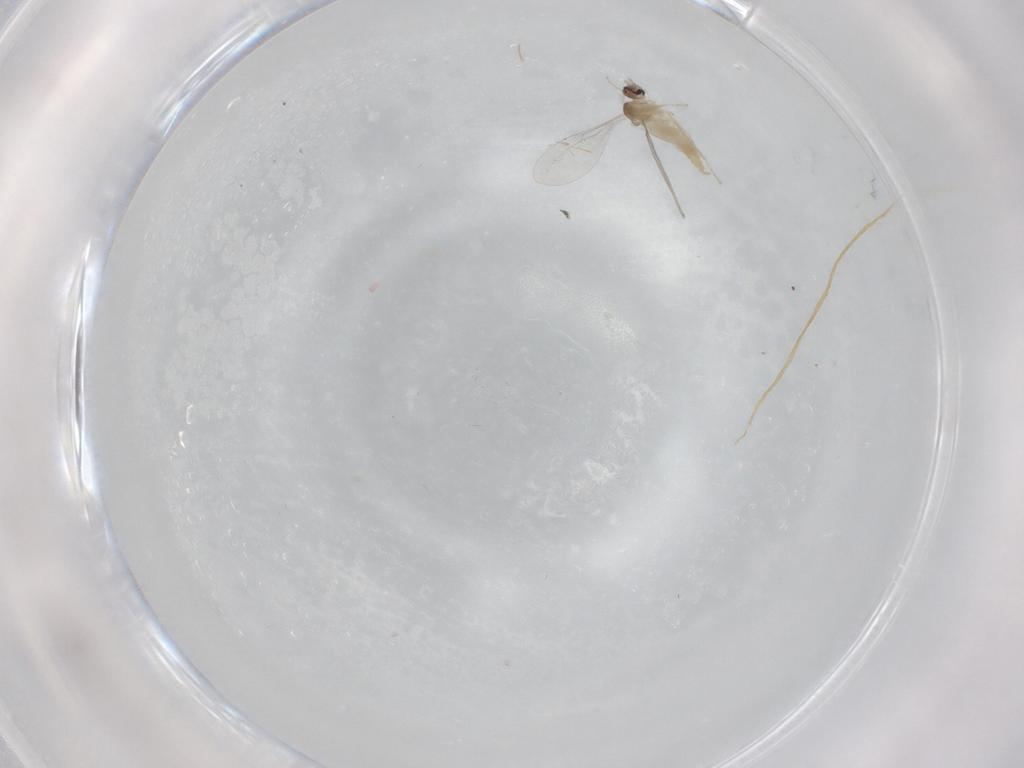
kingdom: Animalia
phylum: Arthropoda
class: Insecta
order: Diptera
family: Cecidomyiidae
